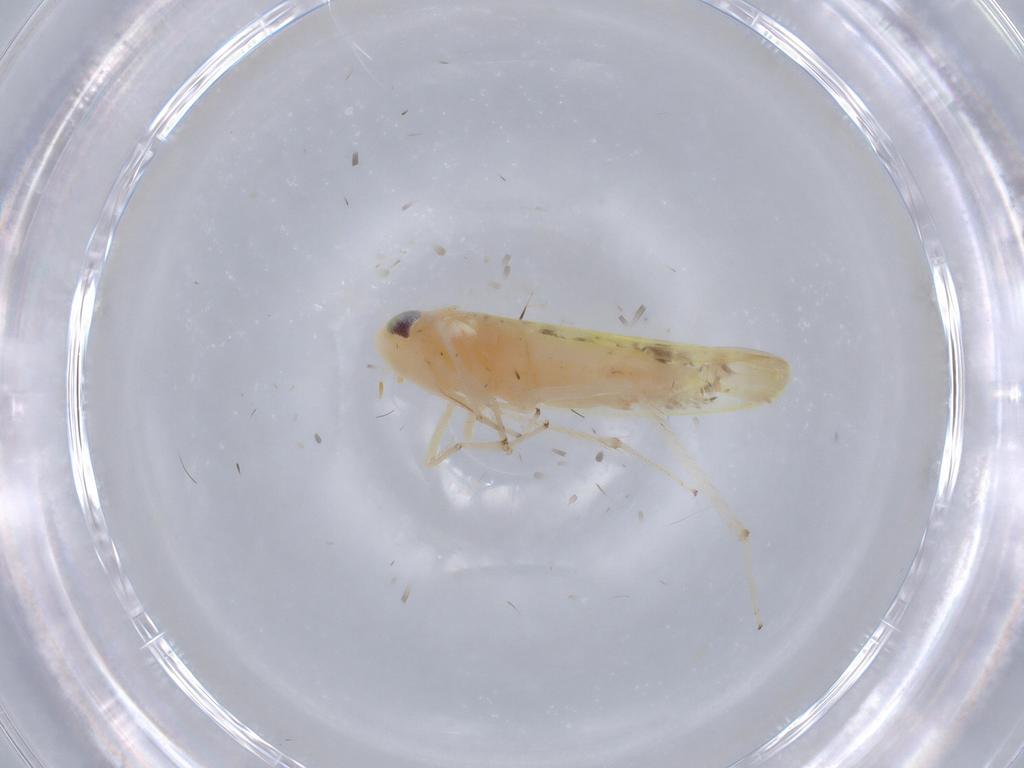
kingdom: Animalia
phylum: Arthropoda
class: Insecta
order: Hemiptera
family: Cicadellidae
